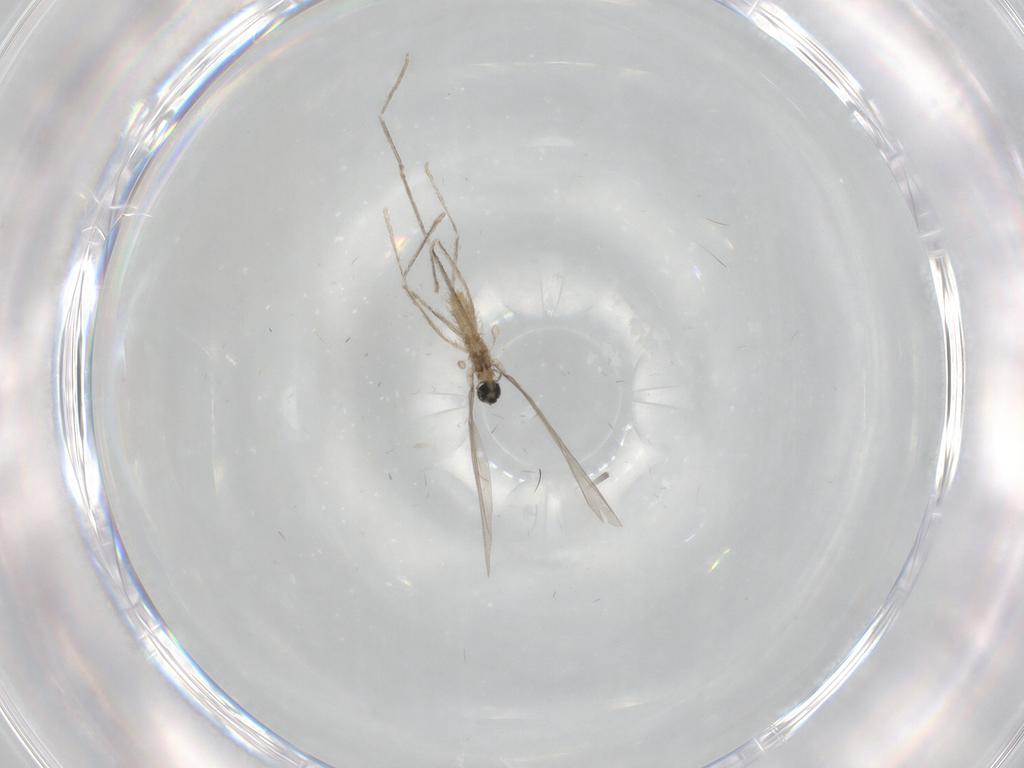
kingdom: Animalia
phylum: Arthropoda
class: Insecta
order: Diptera
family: Cecidomyiidae
